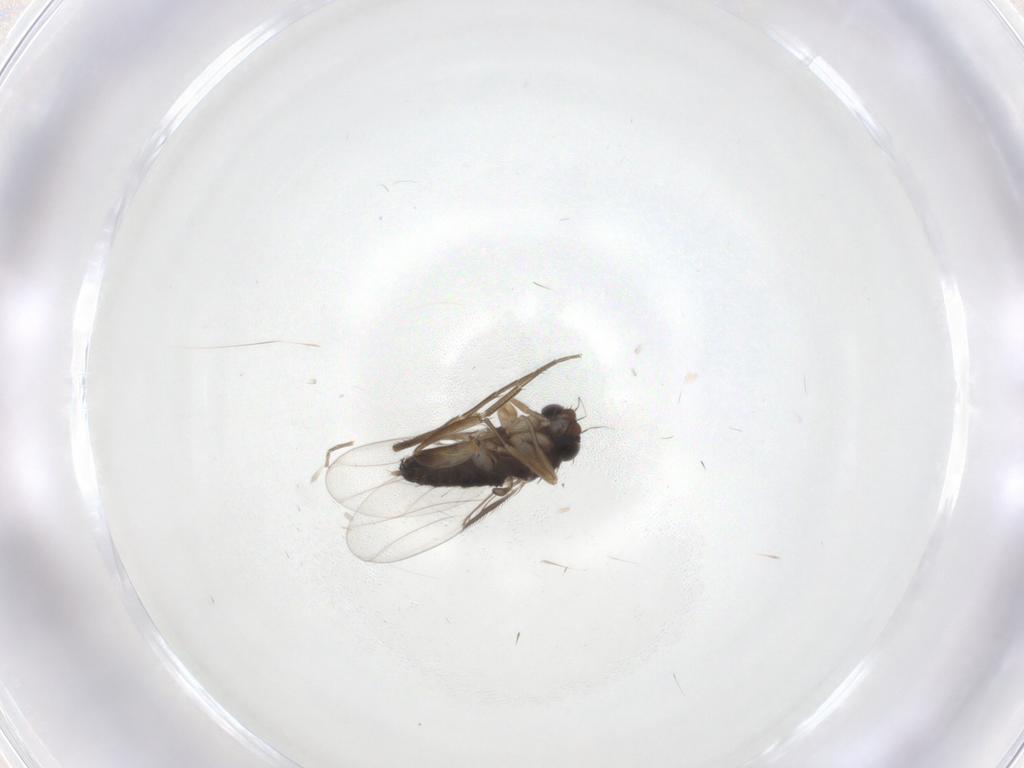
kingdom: Animalia
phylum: Arthropoda
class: Insecta
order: Diptera
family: Phoridae
